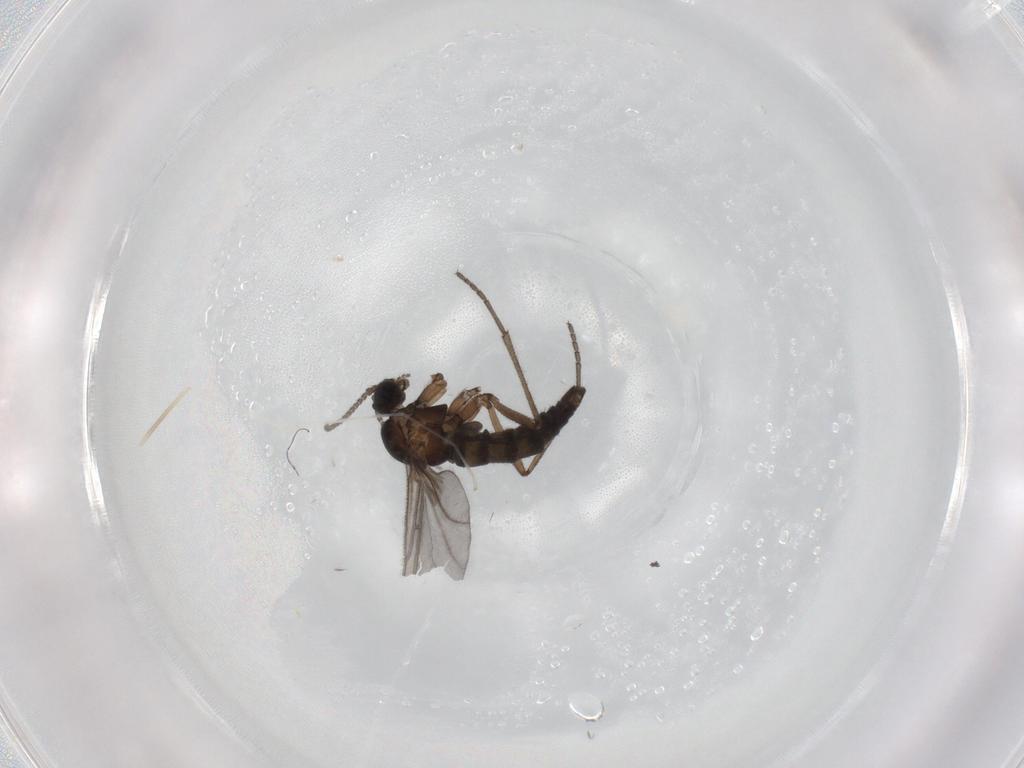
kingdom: Animalia
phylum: Arthropoda
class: Insecta
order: Diptera
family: Sciaridae
